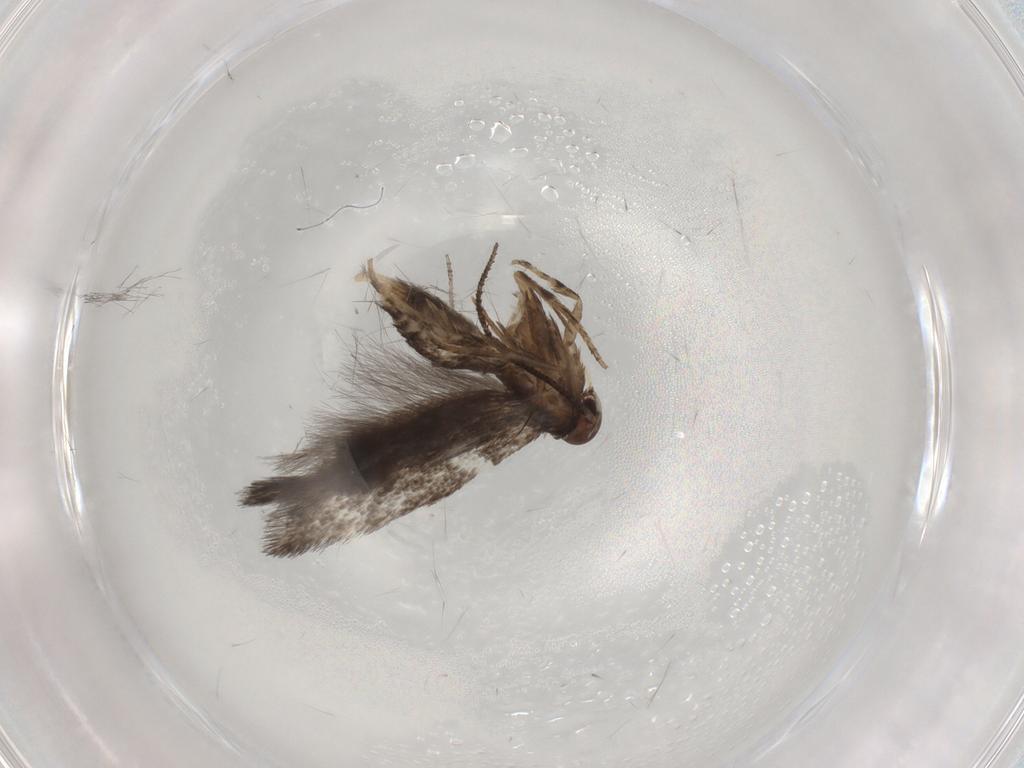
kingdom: Animalia
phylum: Arthropoda
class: Insecta
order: Lepidoptera
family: Elachistidae
